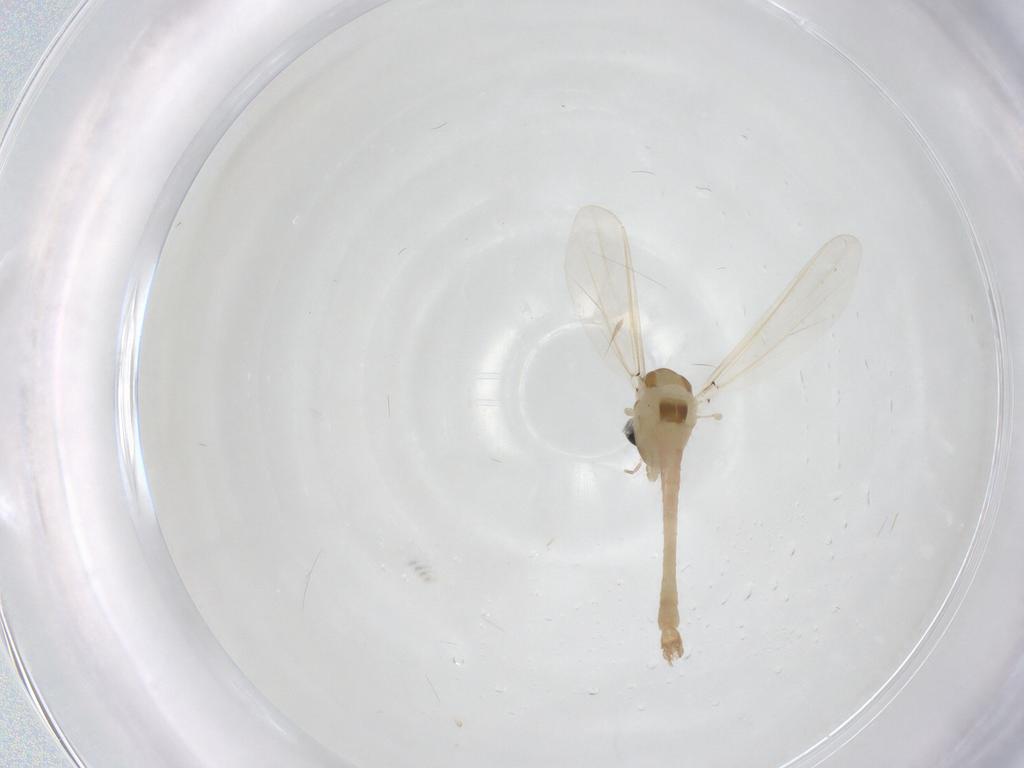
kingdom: Animalia
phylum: Arthropoda
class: Insecta
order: Diptera
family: Chironomidae
